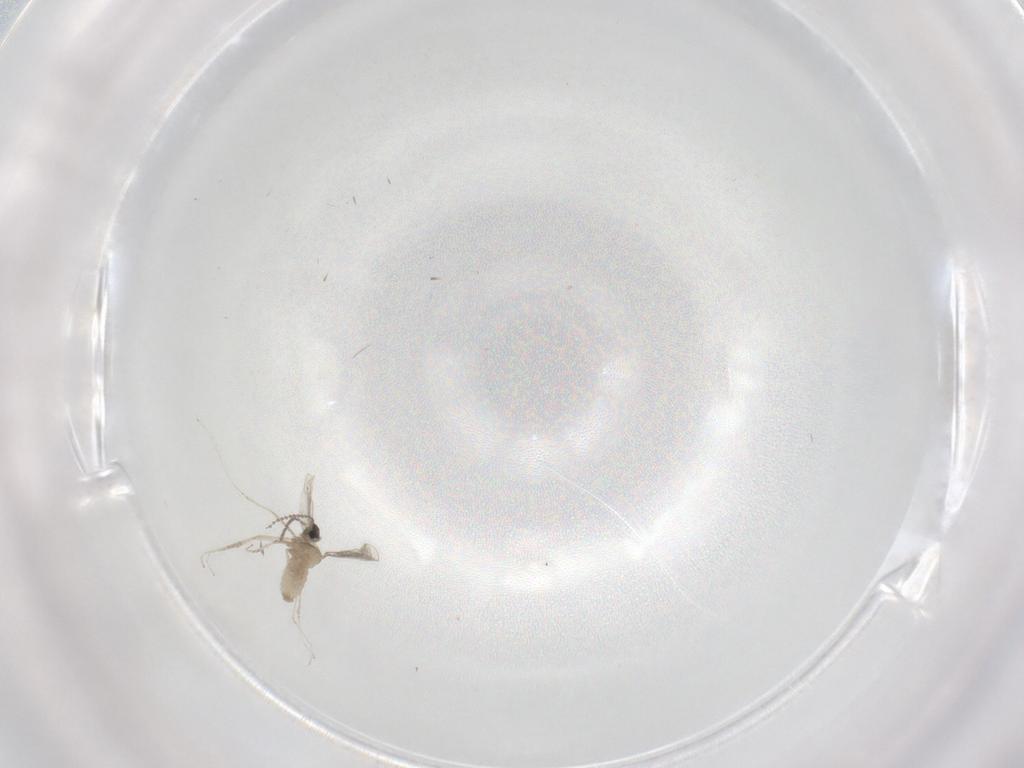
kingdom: Animalia
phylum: Arthropoda
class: Insecta
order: Diptera
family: Cecidomyiidae
